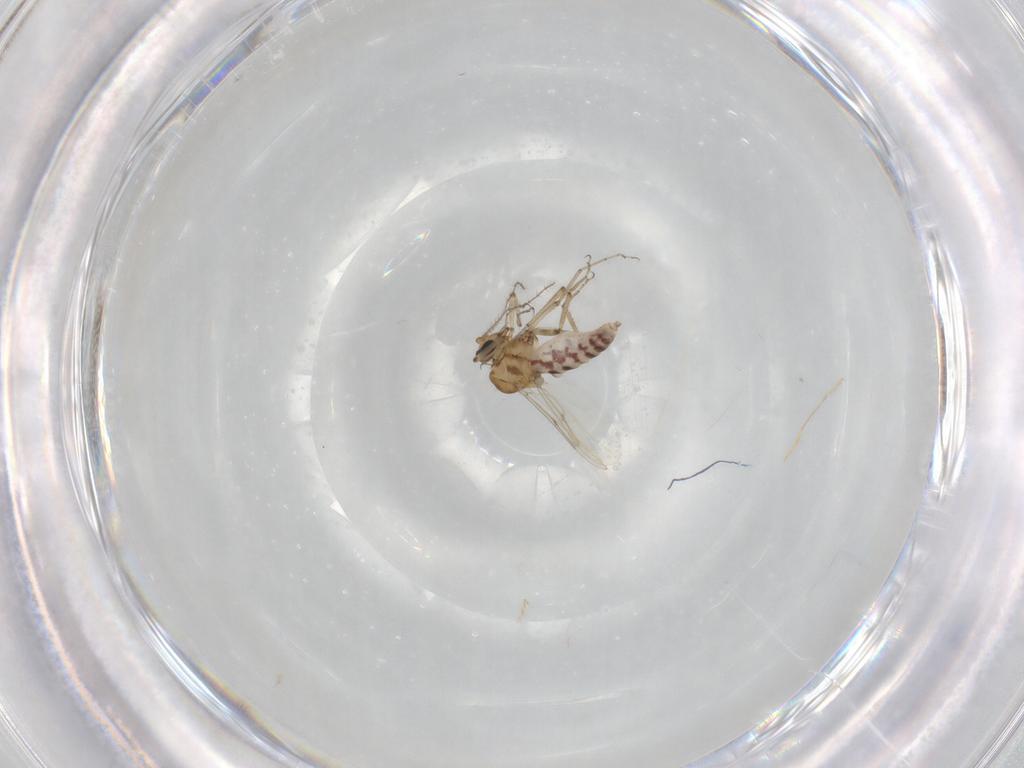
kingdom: Animalia
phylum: Arthropoda
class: Insecta
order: Diptera
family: Ceratopogonidae
